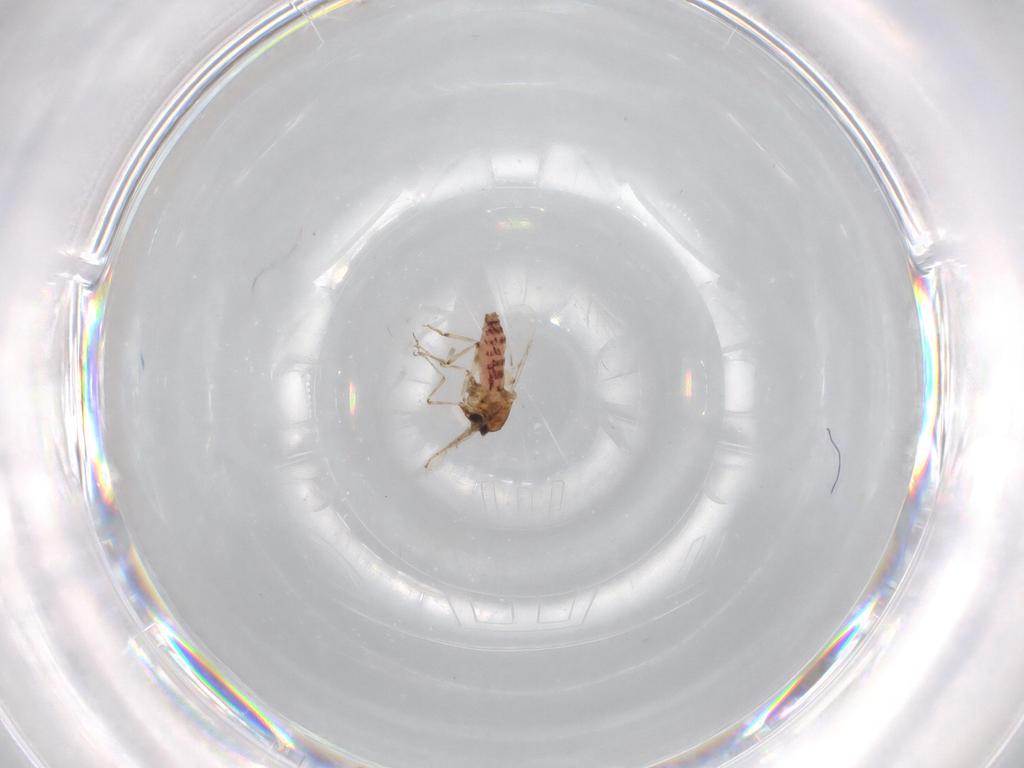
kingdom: Animalia
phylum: Arthropoda
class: Insecta
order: Diptera
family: Ceratopogonidae
